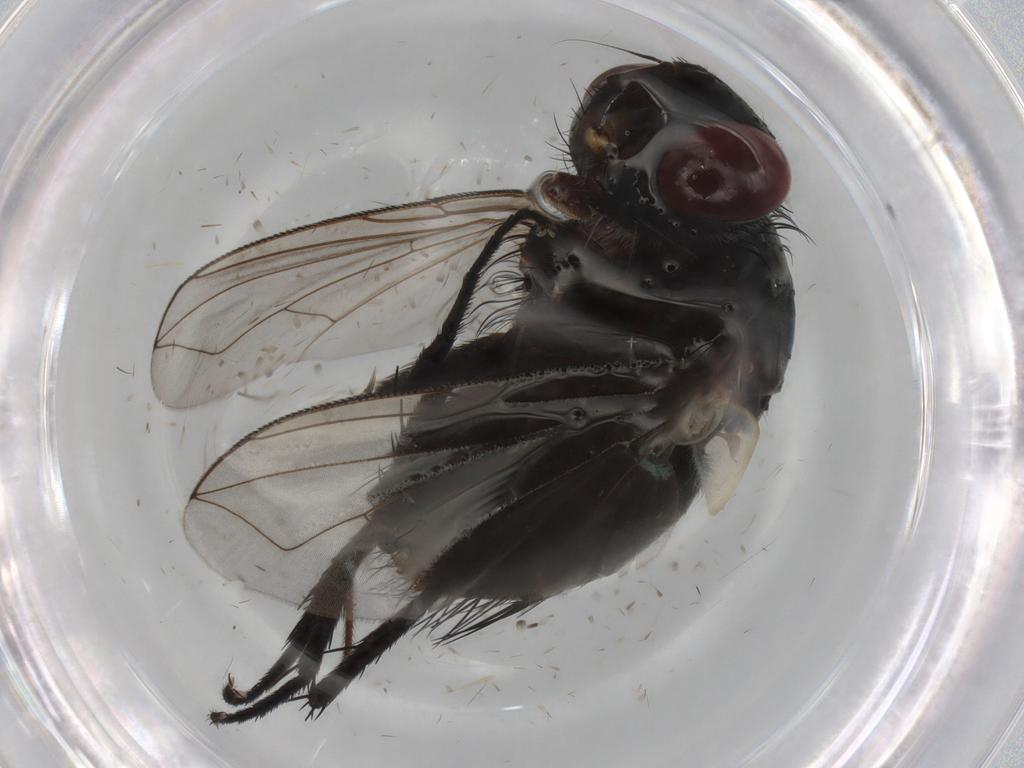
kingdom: Animalia
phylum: Arthropoda
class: Insecta
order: Diptera
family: Tachinidae
